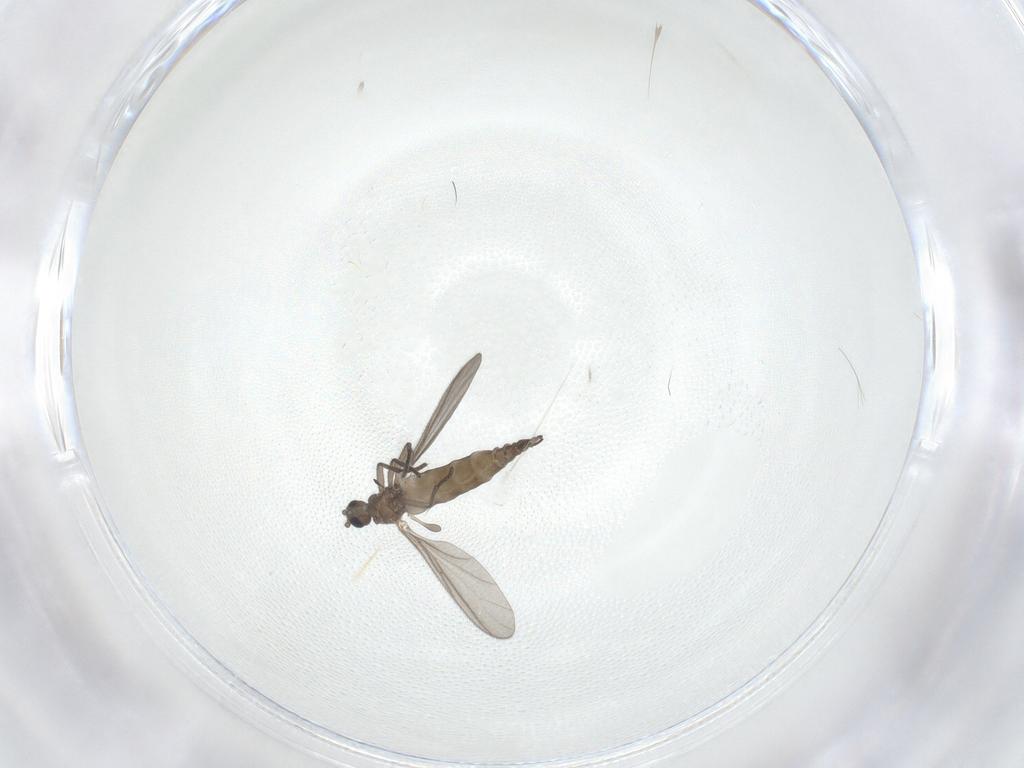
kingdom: Animalia
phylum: Arthropoda
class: Insecta
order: Diptera
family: Sciaridae
